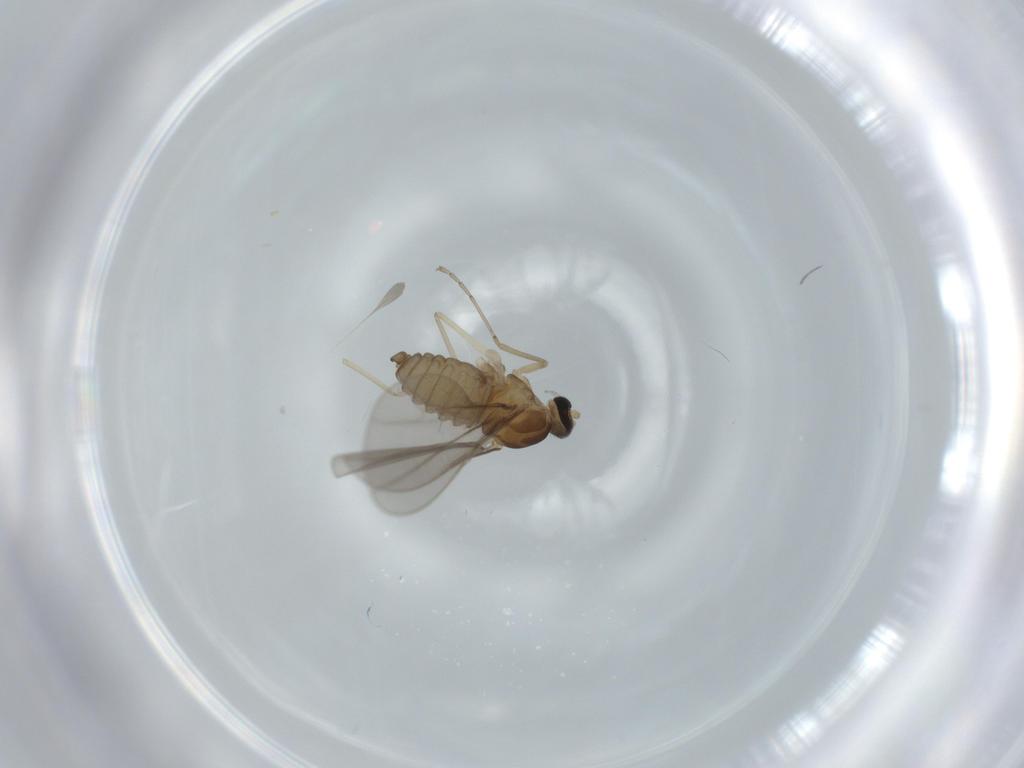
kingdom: Animalia
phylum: Arthropoda
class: Insecta
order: Diptera
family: Cecidomyiidae
